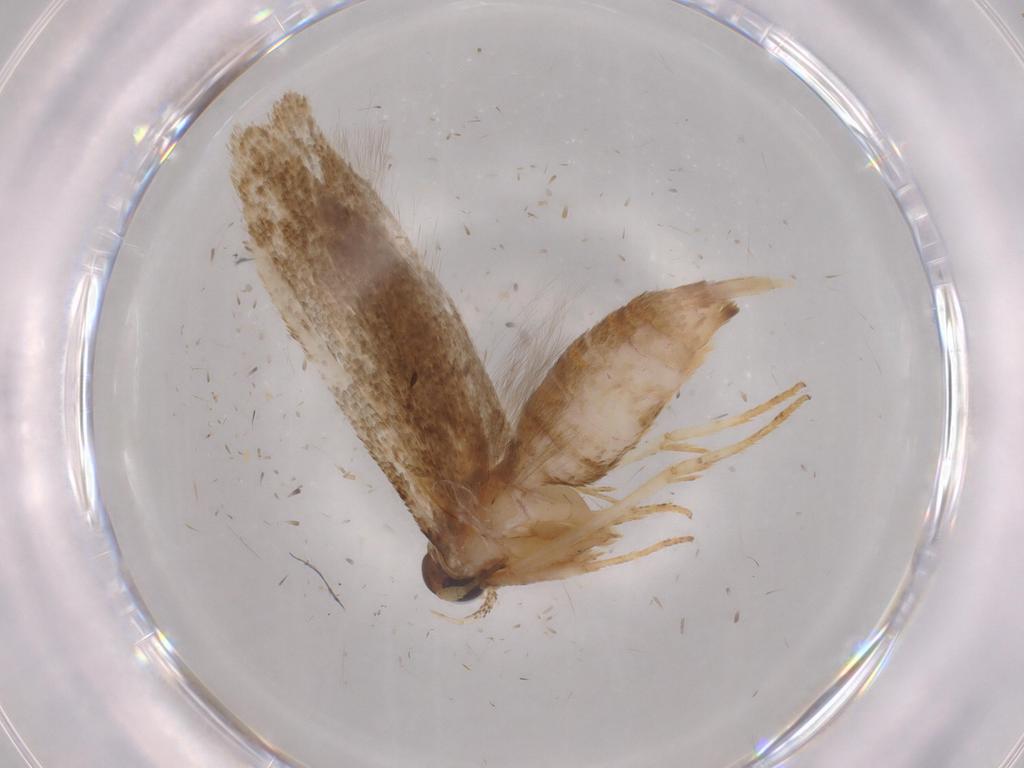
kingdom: Animalia
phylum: Arthropoda
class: Insecta
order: Lepidoptera
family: Tineidae
